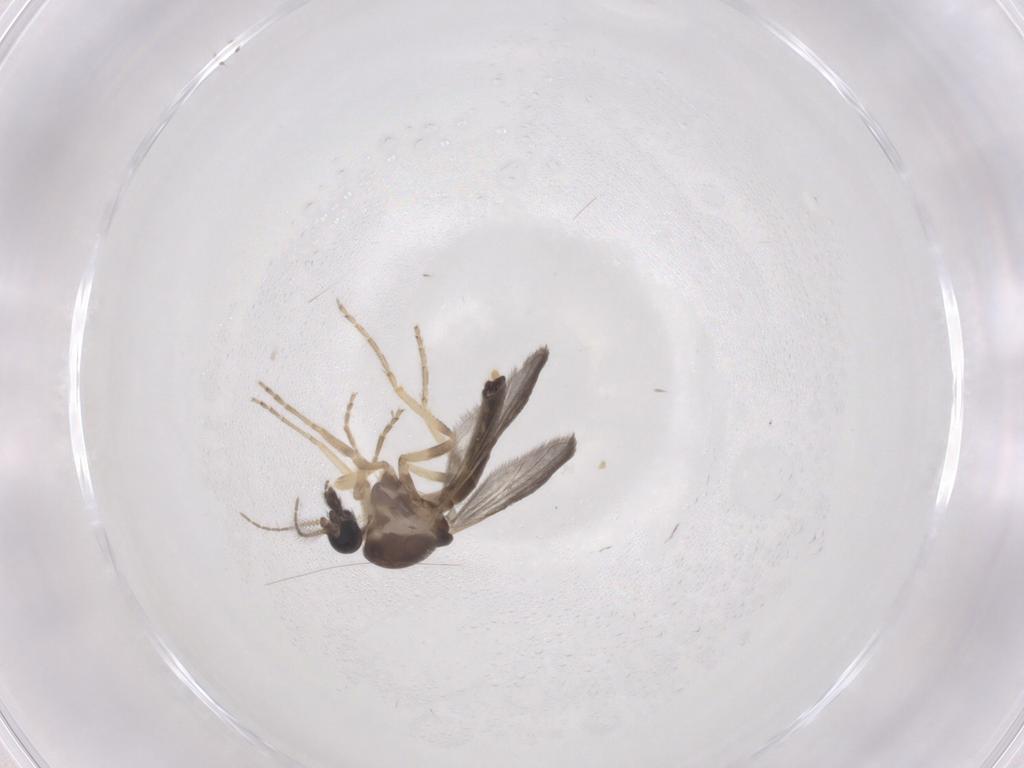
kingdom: Animalia
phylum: Arthropoda
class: Insecta
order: Diptera
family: Ceratopogonidae
